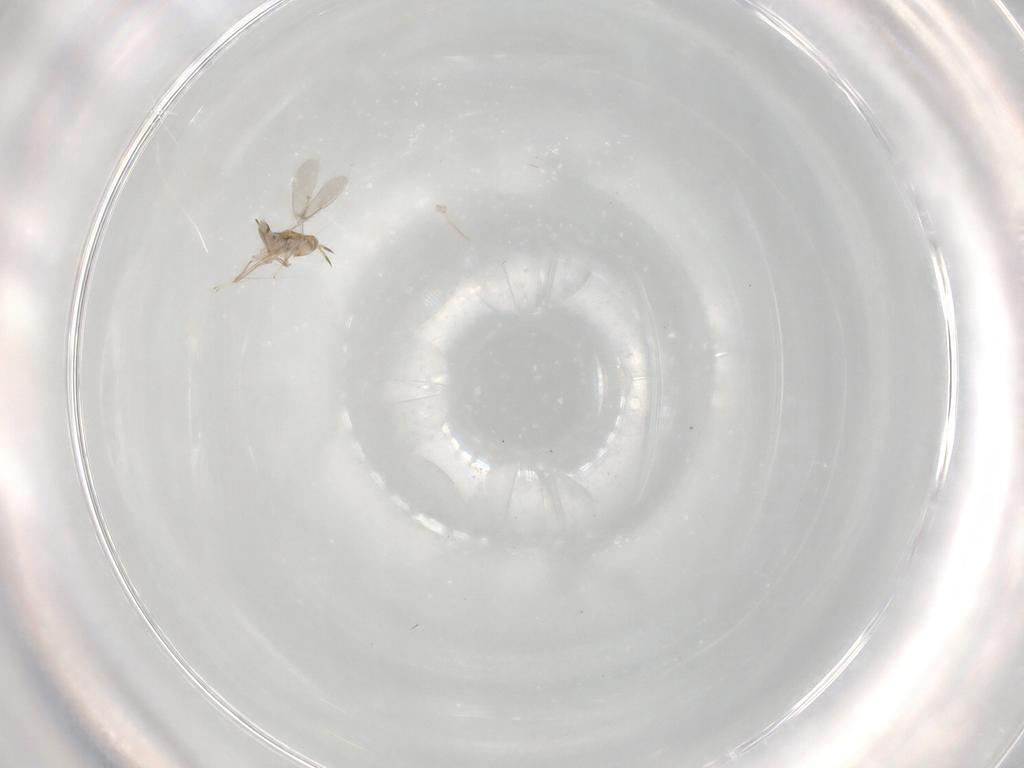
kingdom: Animalia
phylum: Arthropoda
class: Insecta
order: Hymenoptera
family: Aphelinidae
